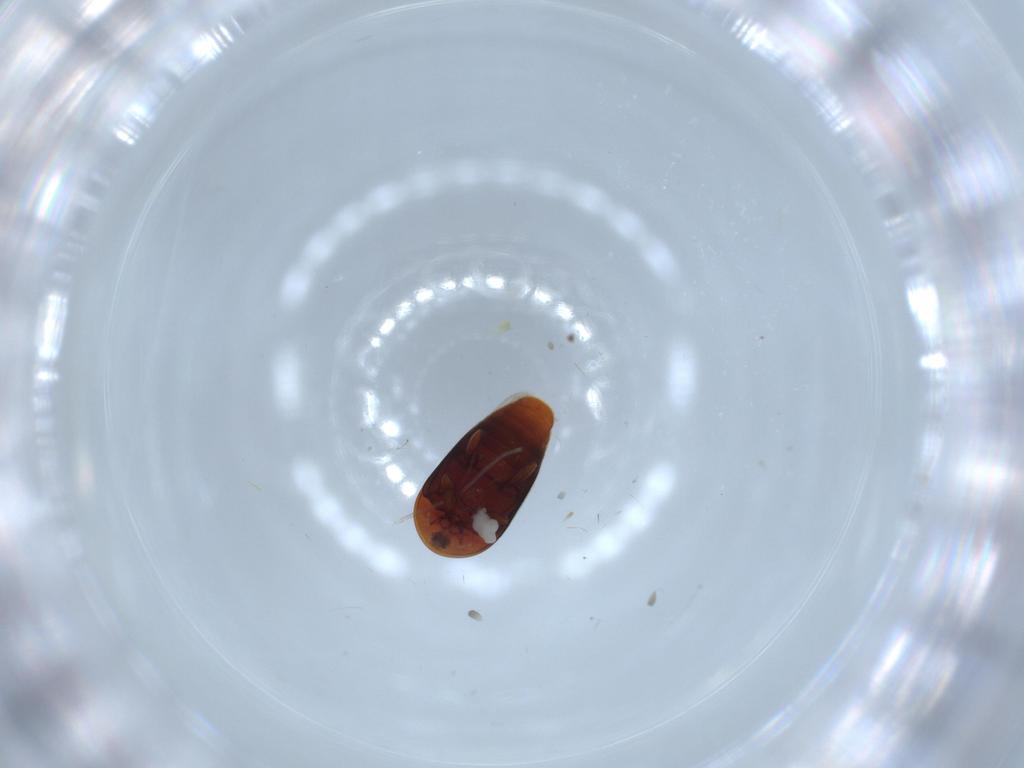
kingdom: Animalia
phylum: Arthropoda
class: Insecta
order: Coleoptera
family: Corylophidae
